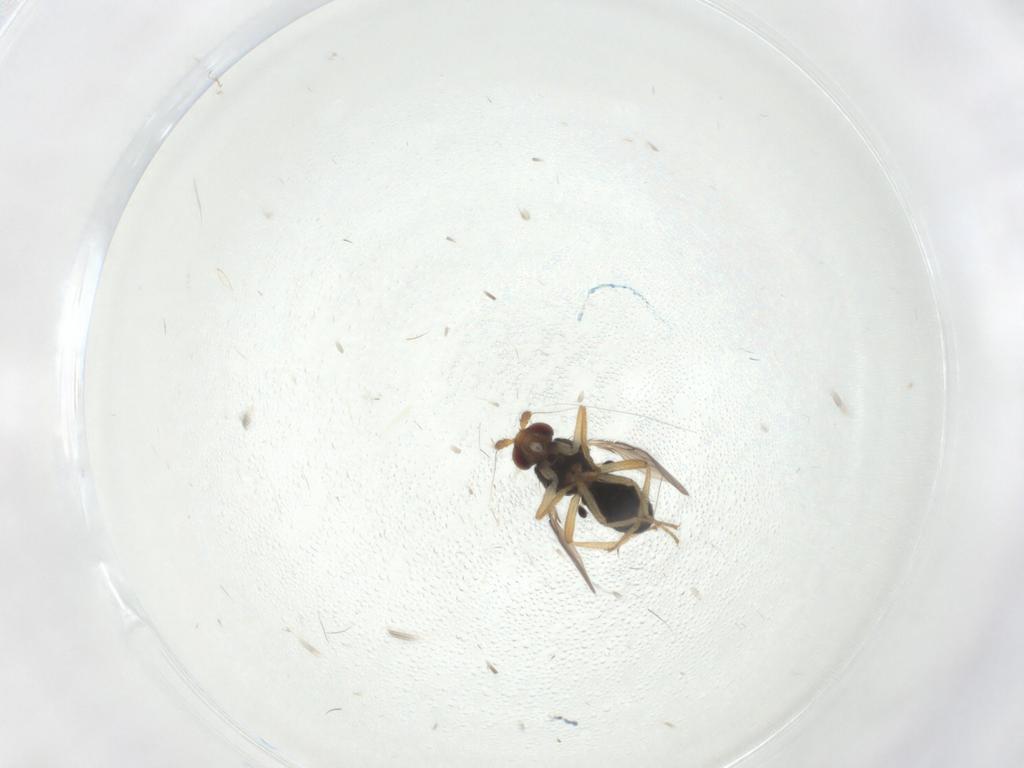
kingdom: Animalia
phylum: Arthropoda
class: Insecta
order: Diptera
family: Sphaeroceridae
